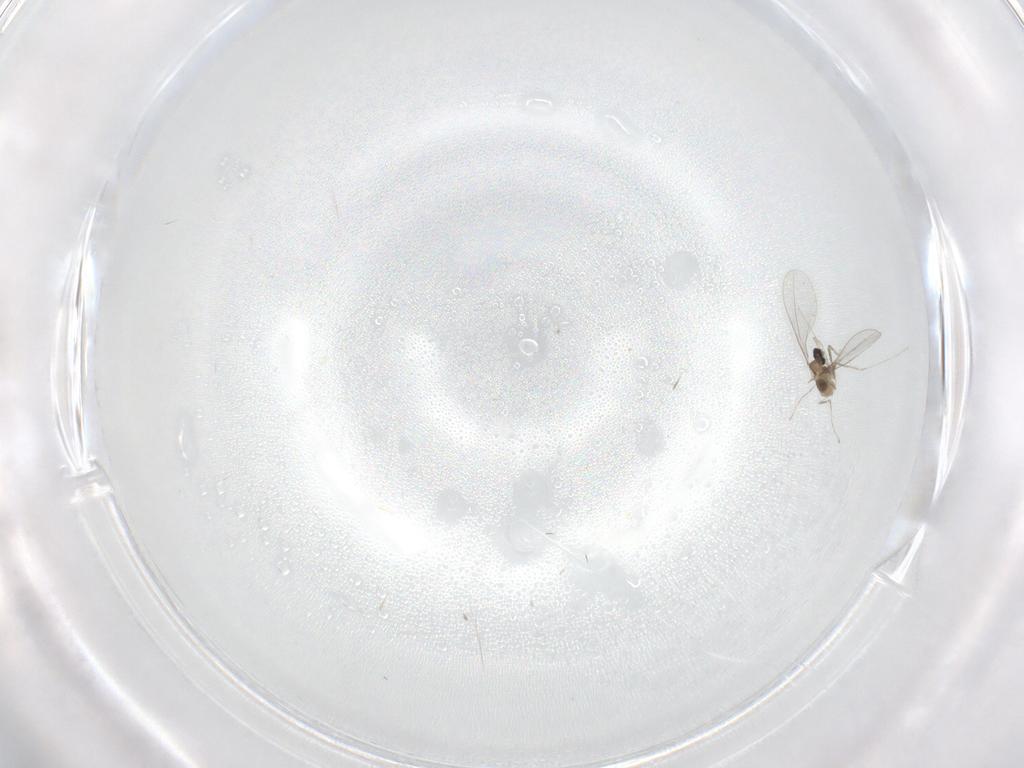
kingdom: Animalia
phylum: Arthropoda
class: Insecta
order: Diptera
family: Cecidomyiidae
